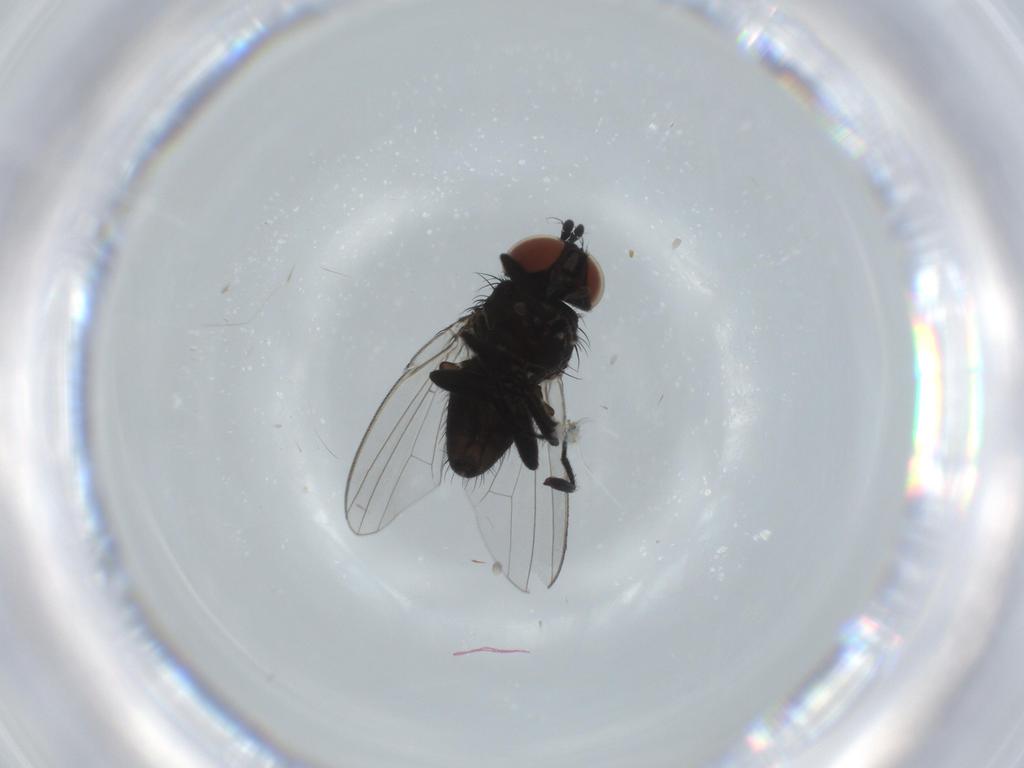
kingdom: Animalia
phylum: Arthropoda
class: Insecta
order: Diptera
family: Milichiidae
